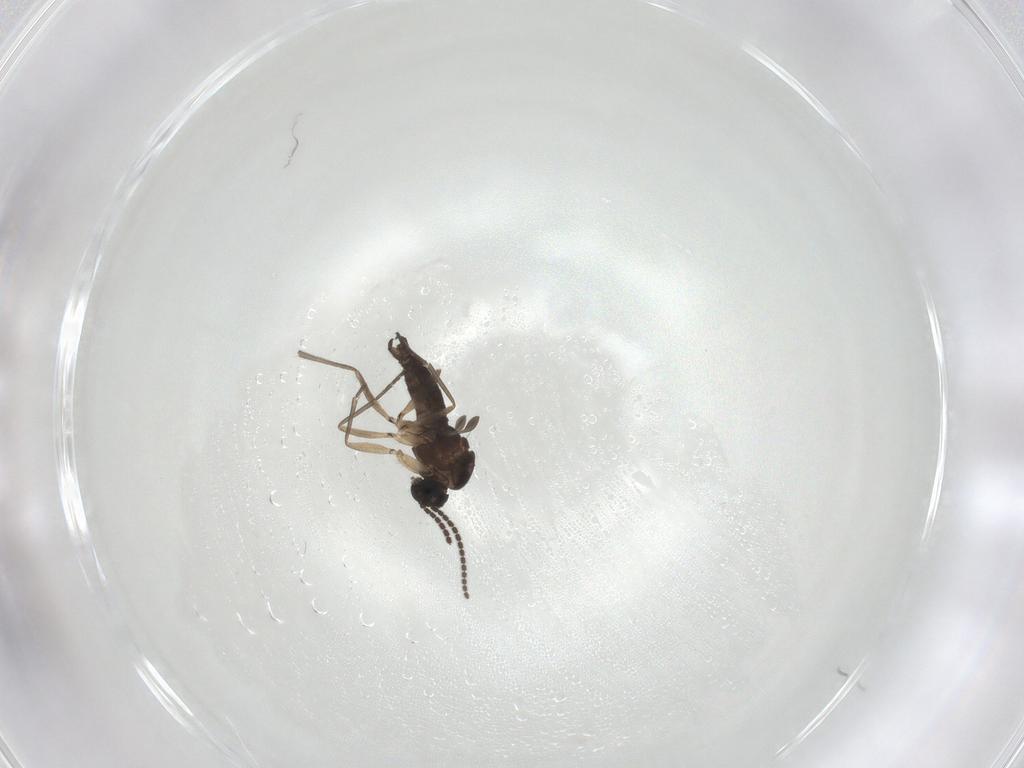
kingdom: Animalia
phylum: Arthropoda
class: Insecta
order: Diptera
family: Sciaridae
